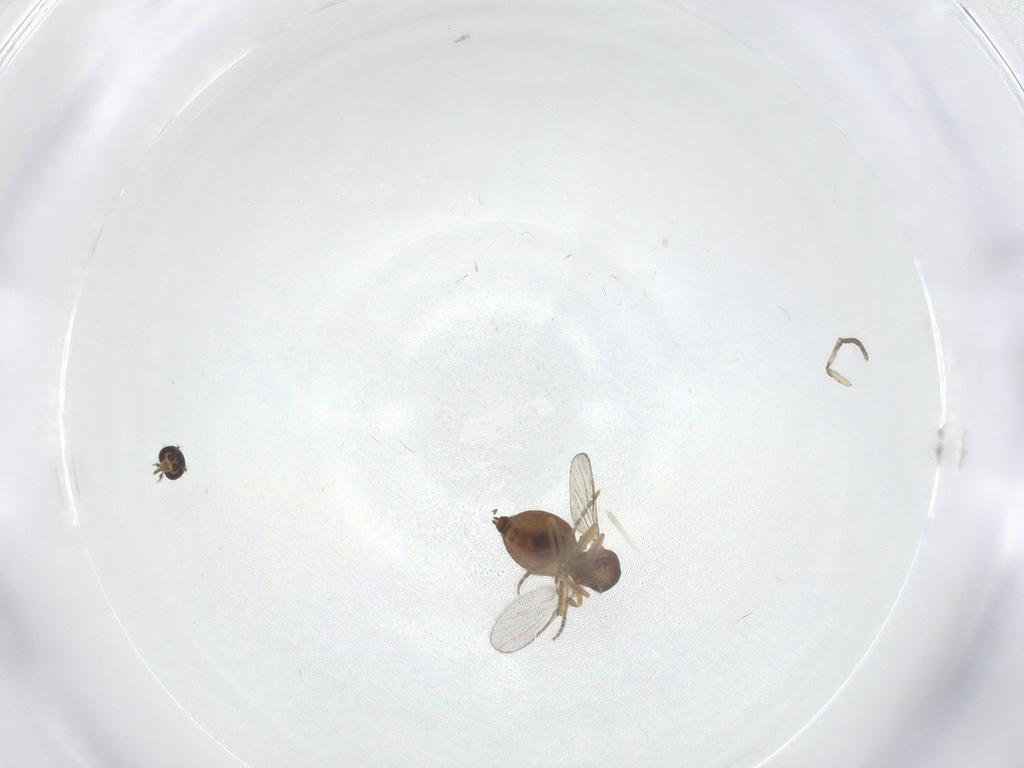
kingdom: Animalia
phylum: Arthropoda
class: Insecta
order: Diptera
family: Ceratopogonidae
